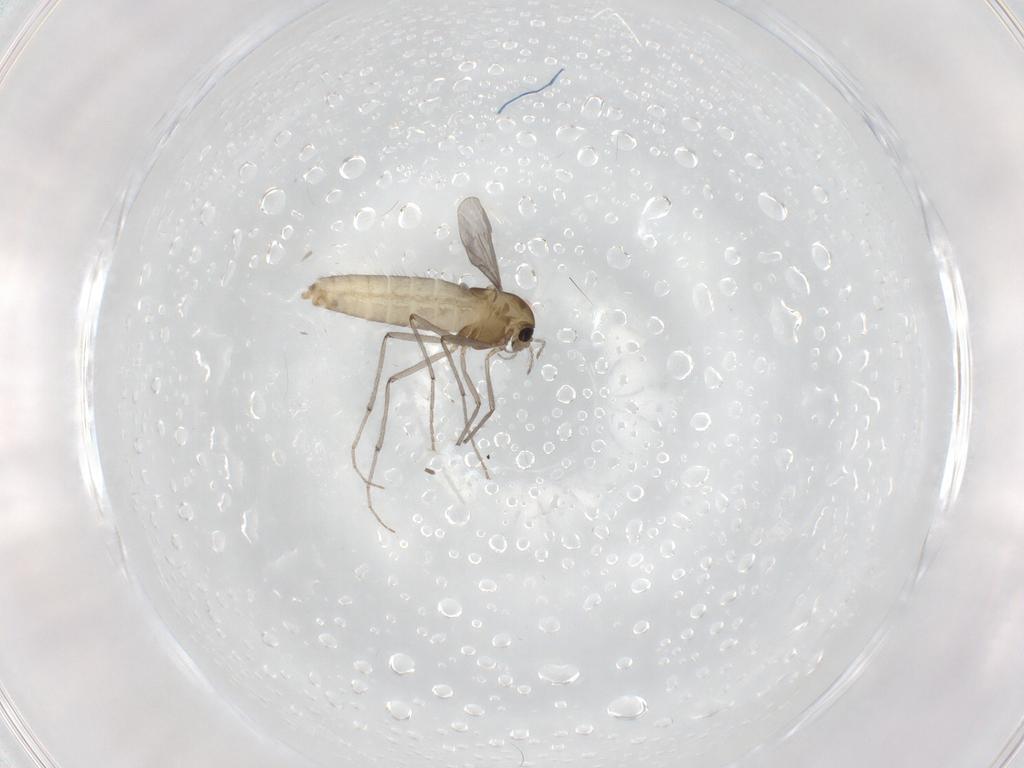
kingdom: Animalia
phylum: Arthropoda
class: Insecta
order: Diptera
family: Chironomidae
